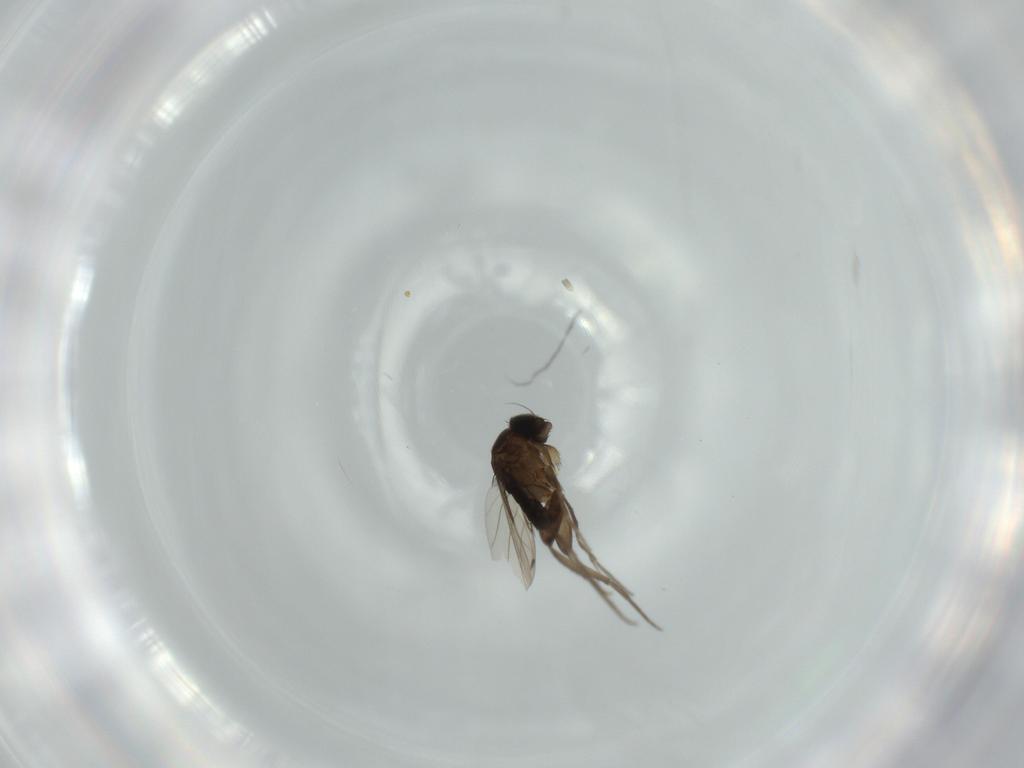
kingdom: Animalia
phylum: Arthropoda
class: Insecta
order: Diptera
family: Phoridae
